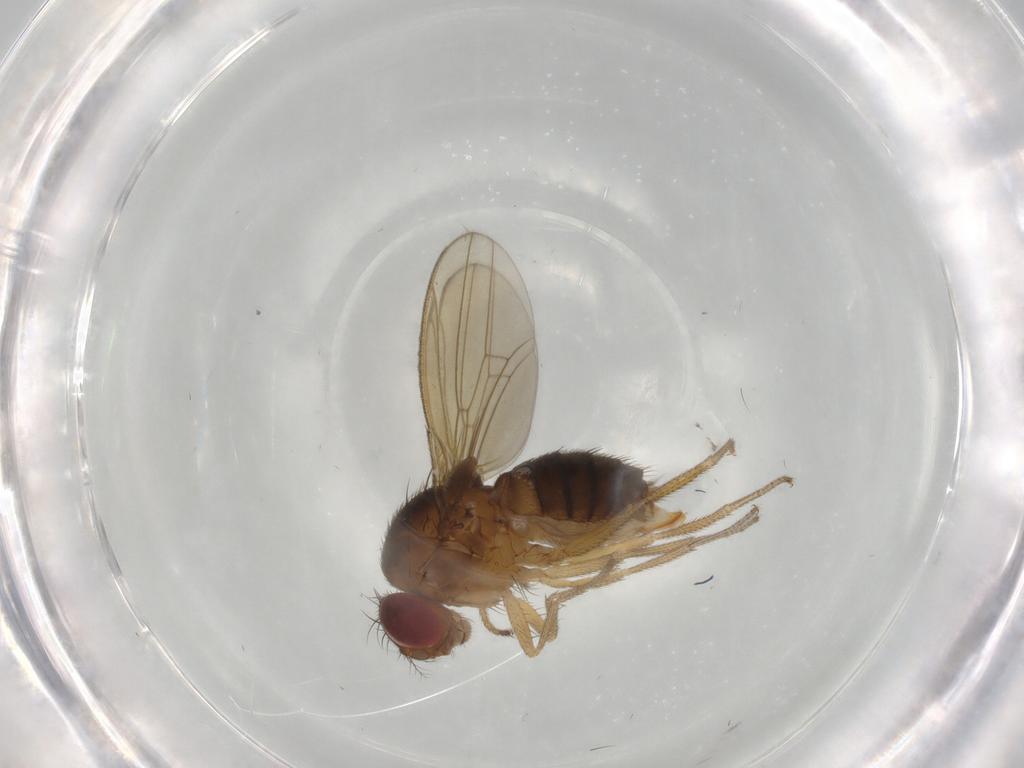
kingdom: Animalia
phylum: Arthropoda
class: Insecta
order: Diptera
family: Drosophilidae
